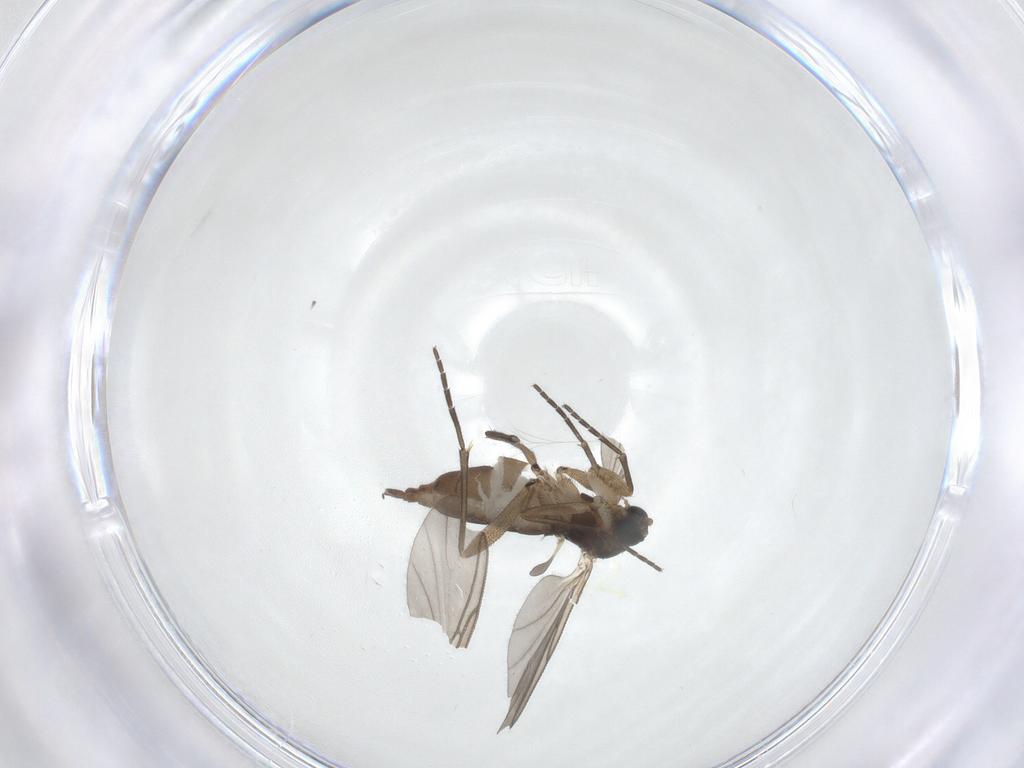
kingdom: Animalia
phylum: Arthropoda
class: Insecta
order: Diptera
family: Sciaridae
